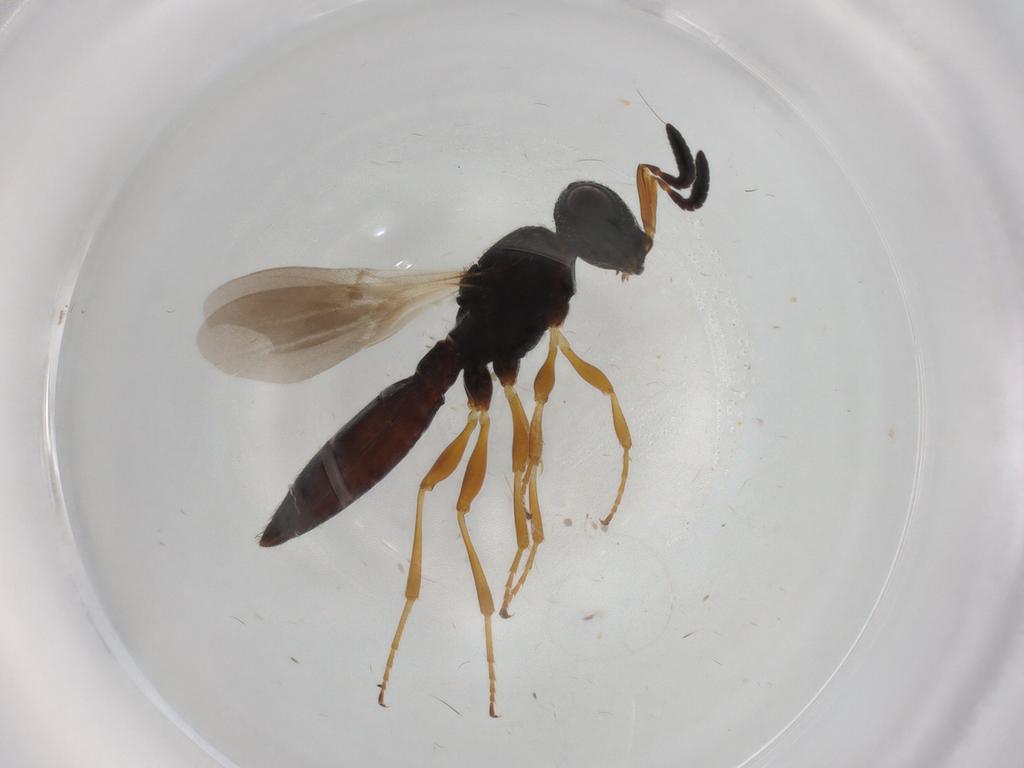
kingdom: Animalia
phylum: Arthropoda
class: Insecta
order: Hymenoptera
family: Scelionidae
